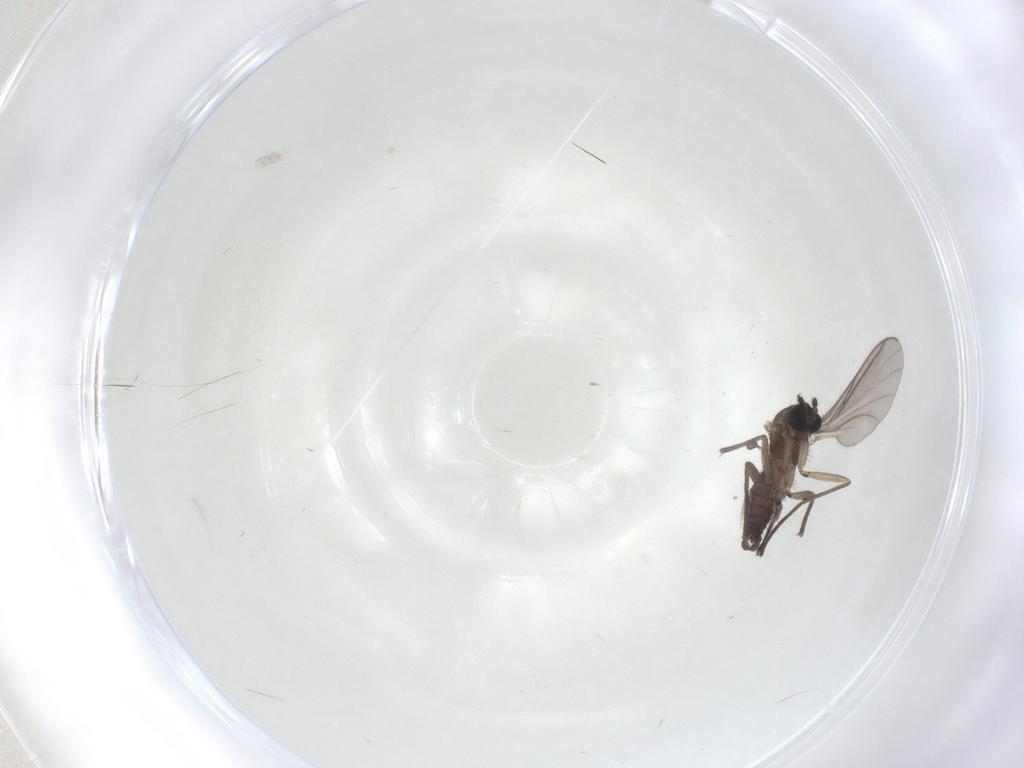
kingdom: Animalia
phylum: Arthropoda
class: Insecta
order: Diptera
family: Sciaridae
